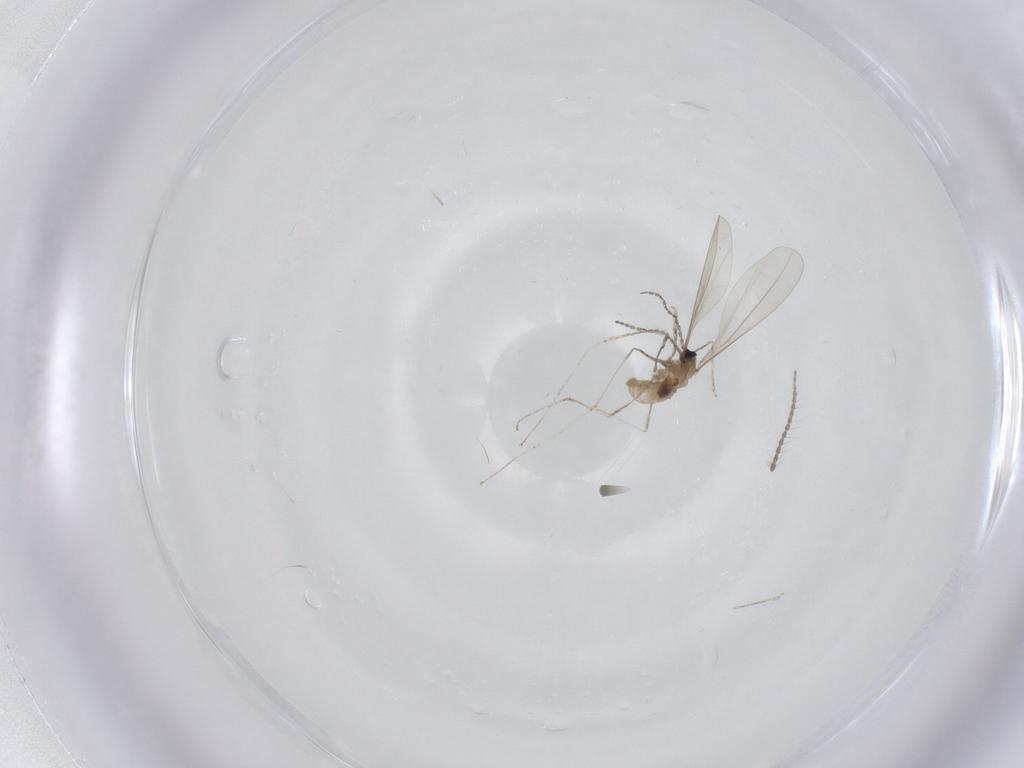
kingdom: Animalia
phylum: Arthropoda
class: Insecta
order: Diptera
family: Cecidomyiidae
